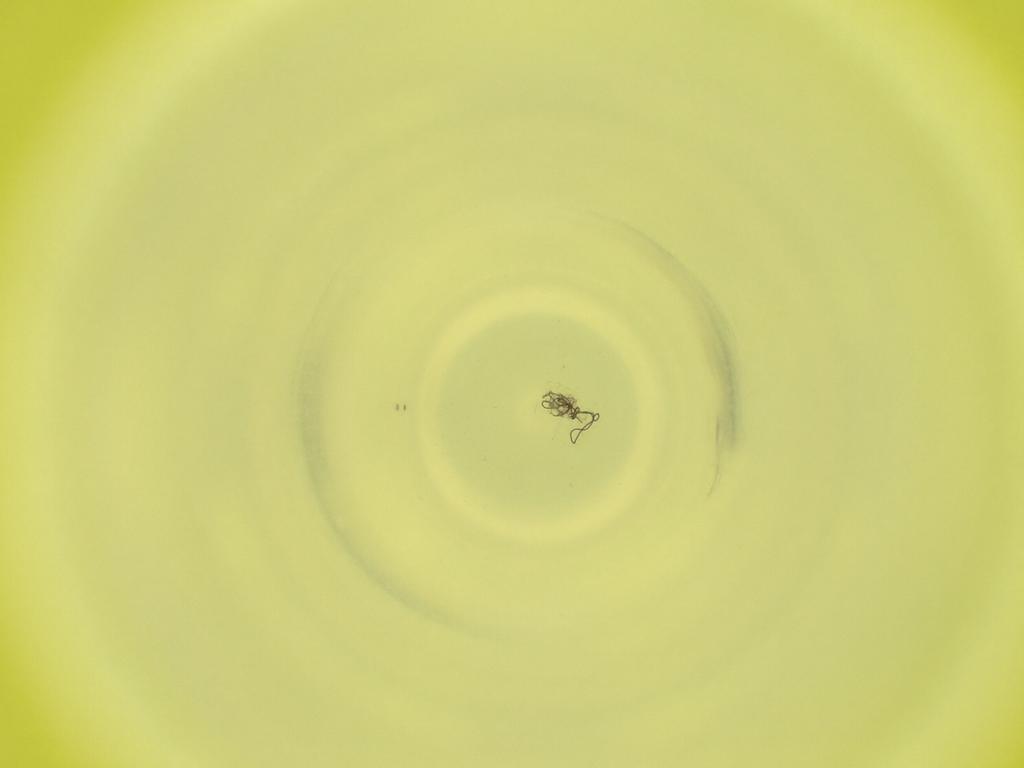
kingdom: Animalia
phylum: Arthropoda
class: Insecta
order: Diptera
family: Cecidomyiidae
